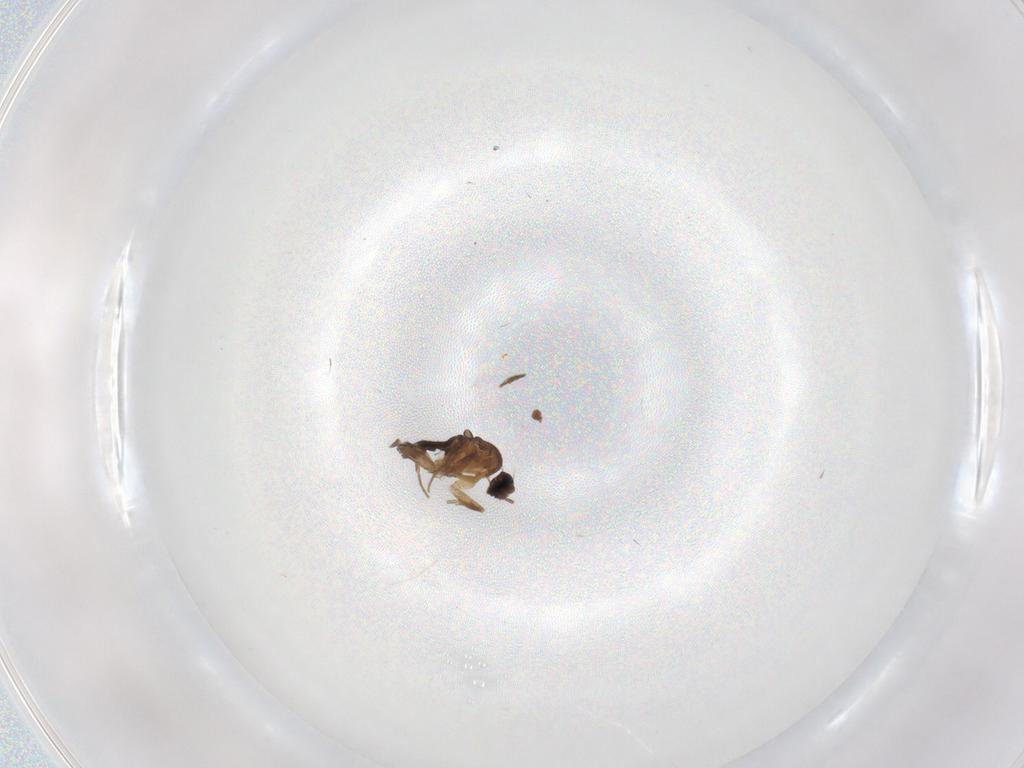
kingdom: Animalia
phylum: Arthropoda
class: Insecta
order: Diptera
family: Phoridae
